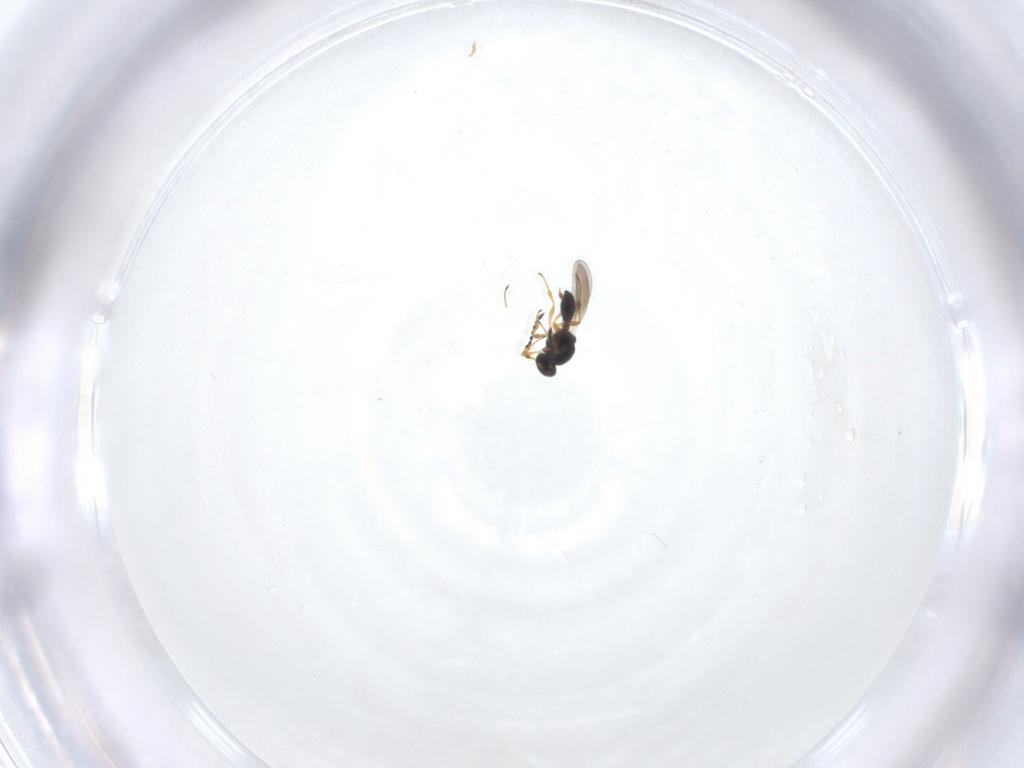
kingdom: Animalia
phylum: Arthropoda
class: Insecta
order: Hymenoptera
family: Platygastridae
